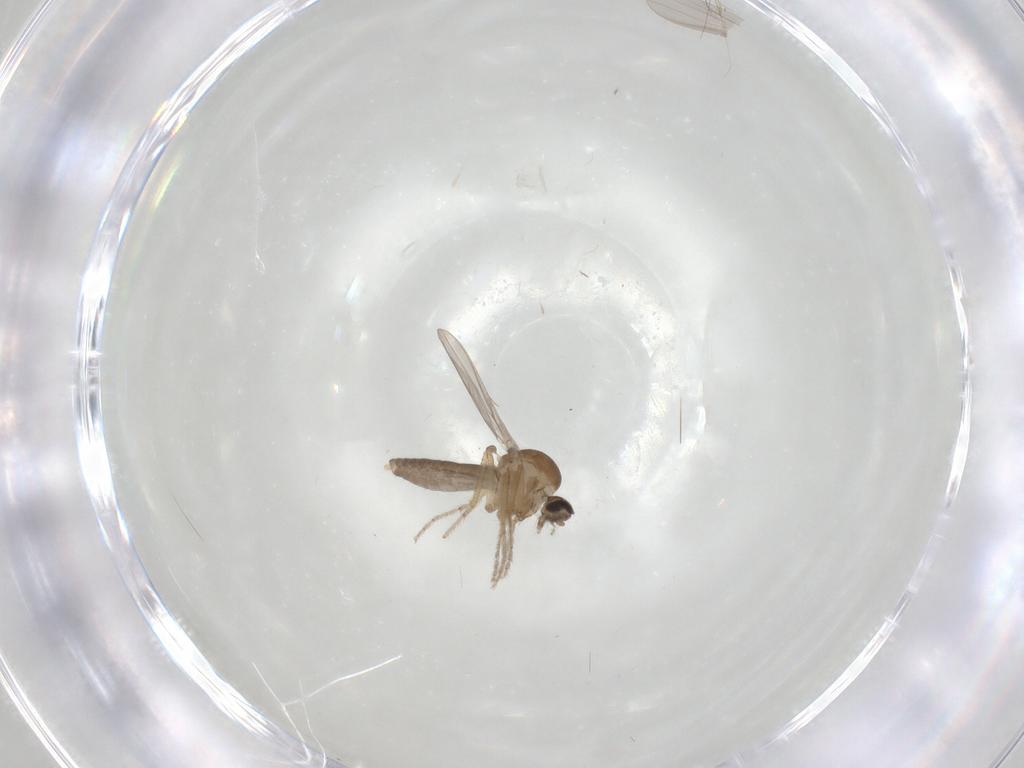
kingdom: Animalia
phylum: Arthropoda
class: Insecta
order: Diptera
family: Ceratopogonidae
